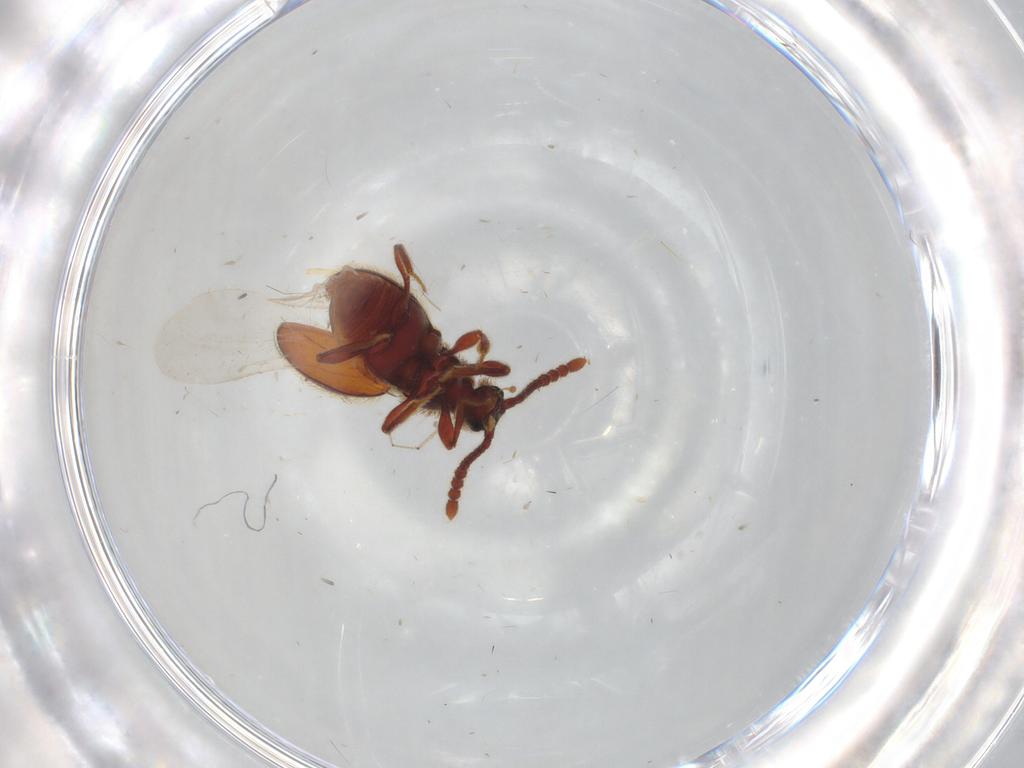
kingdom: Animalia
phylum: Arthropoda
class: Insecta
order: Coleoptera
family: Staphylinidae
